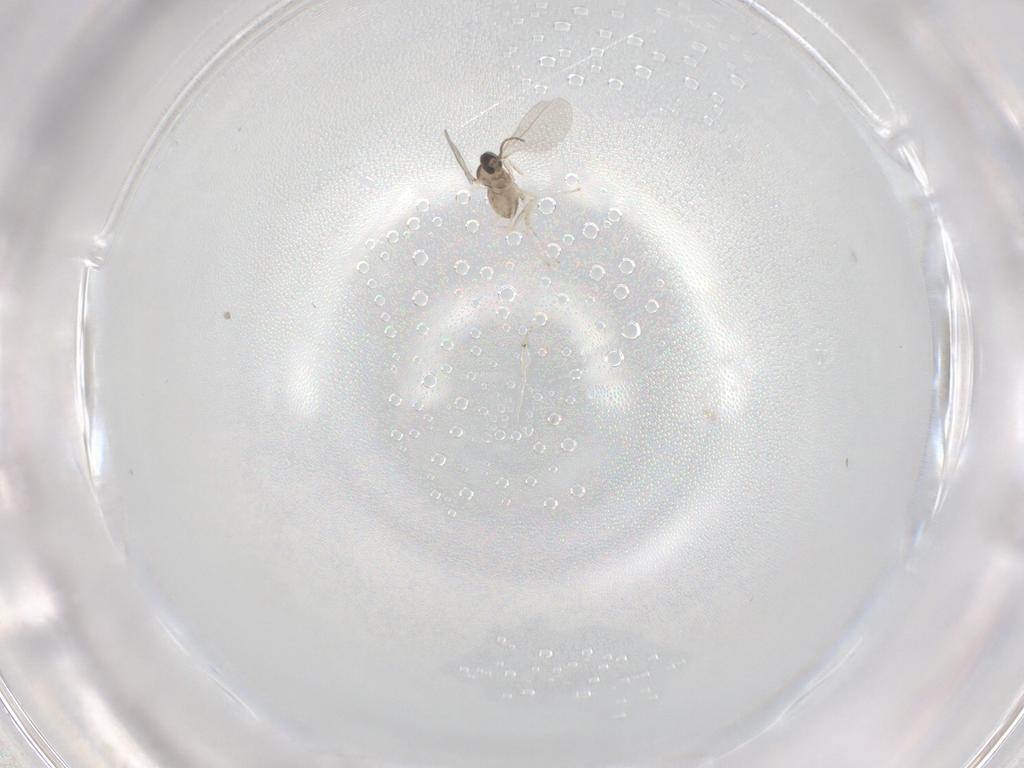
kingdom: Animalia
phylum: Arthropoda
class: Insecta
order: Diptera
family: Cecidomyiidae
